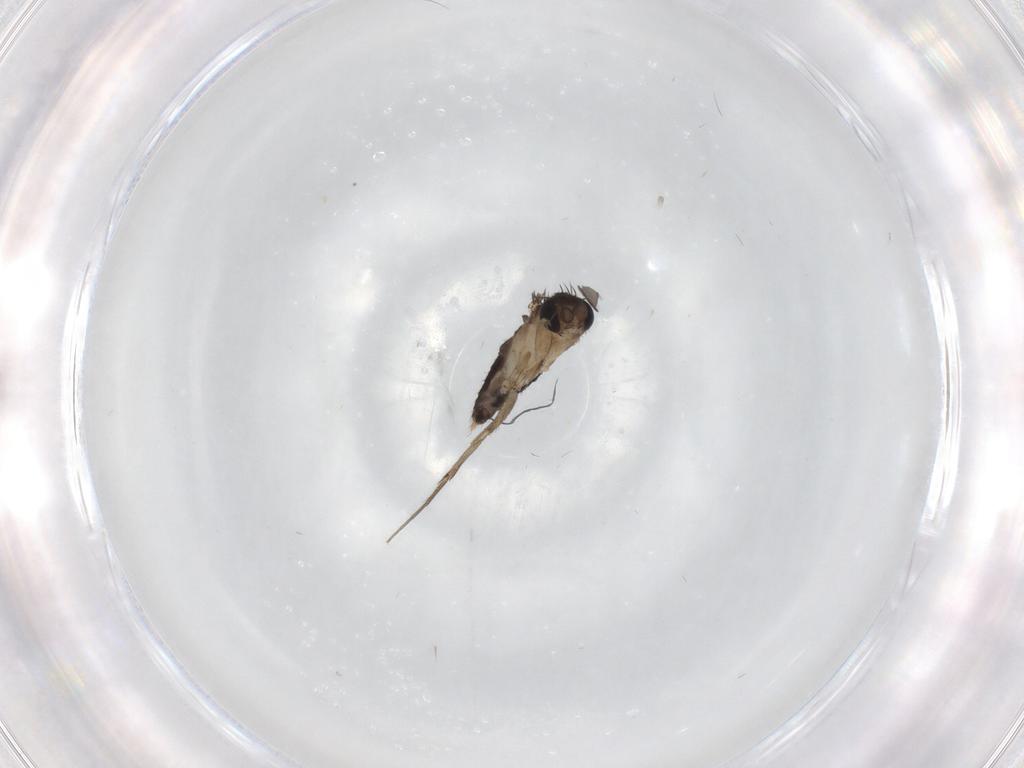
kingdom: Animalia
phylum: Arthropoda
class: Insecta
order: Diptera
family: Phoridae
